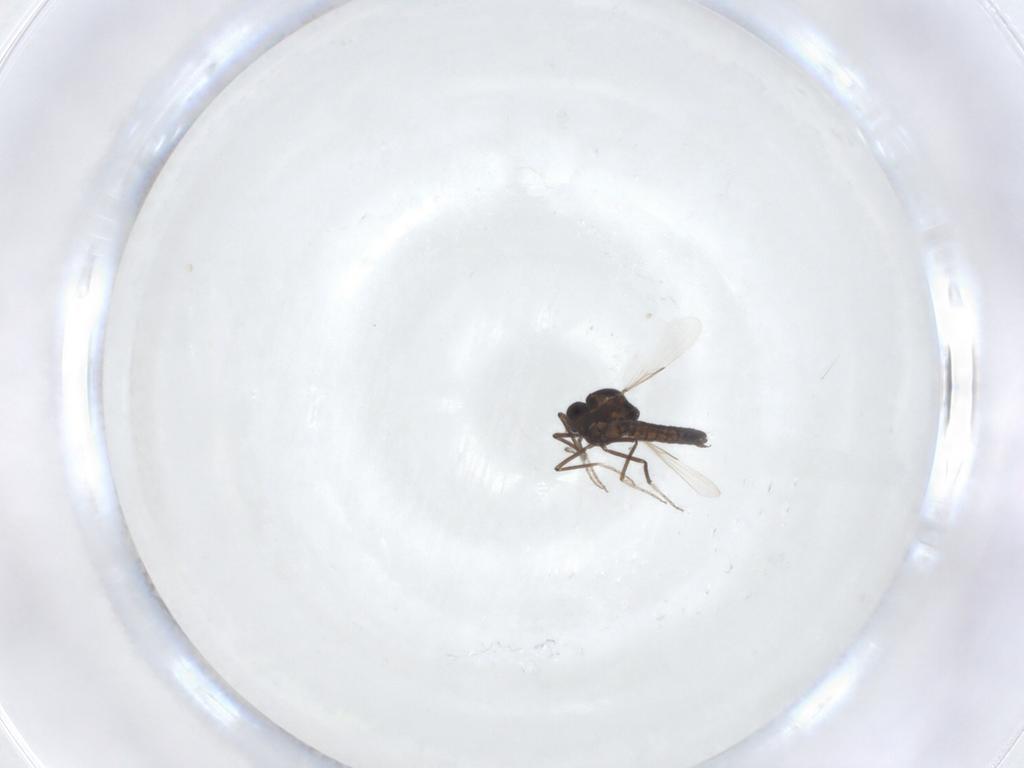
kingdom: Animalia
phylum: Arthropoda
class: Insecta
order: Diptera
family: Ceratopogonidae
